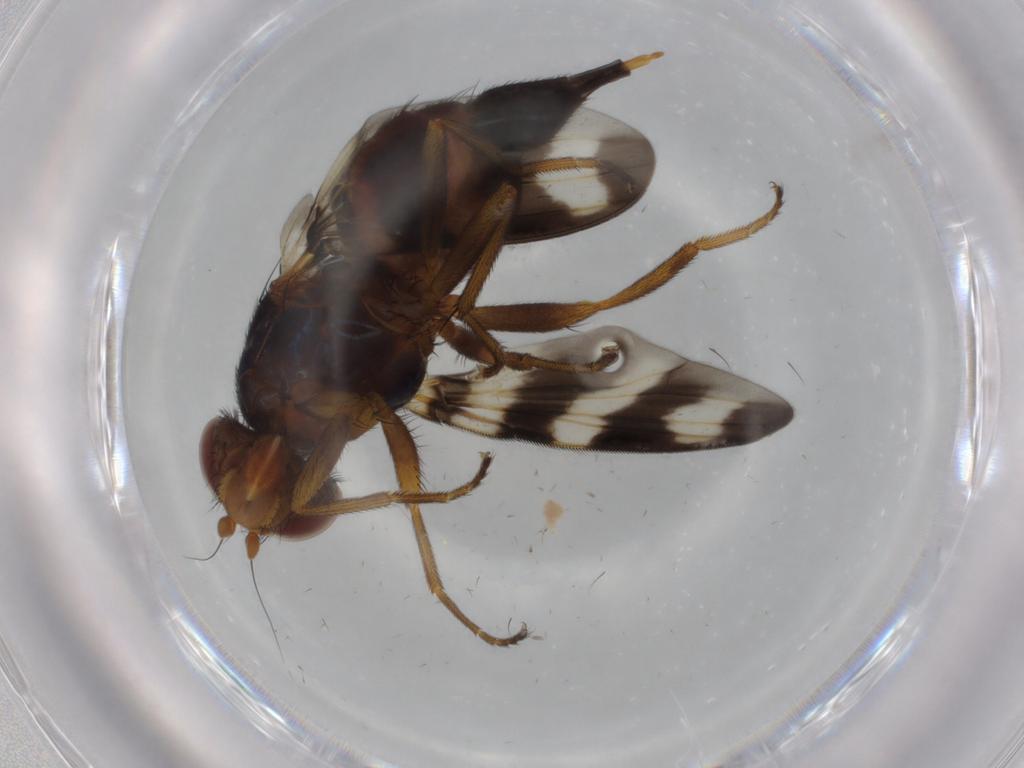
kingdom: Animalia
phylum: Arthropoda
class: Insecta
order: Diptera
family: Ulidiidae
